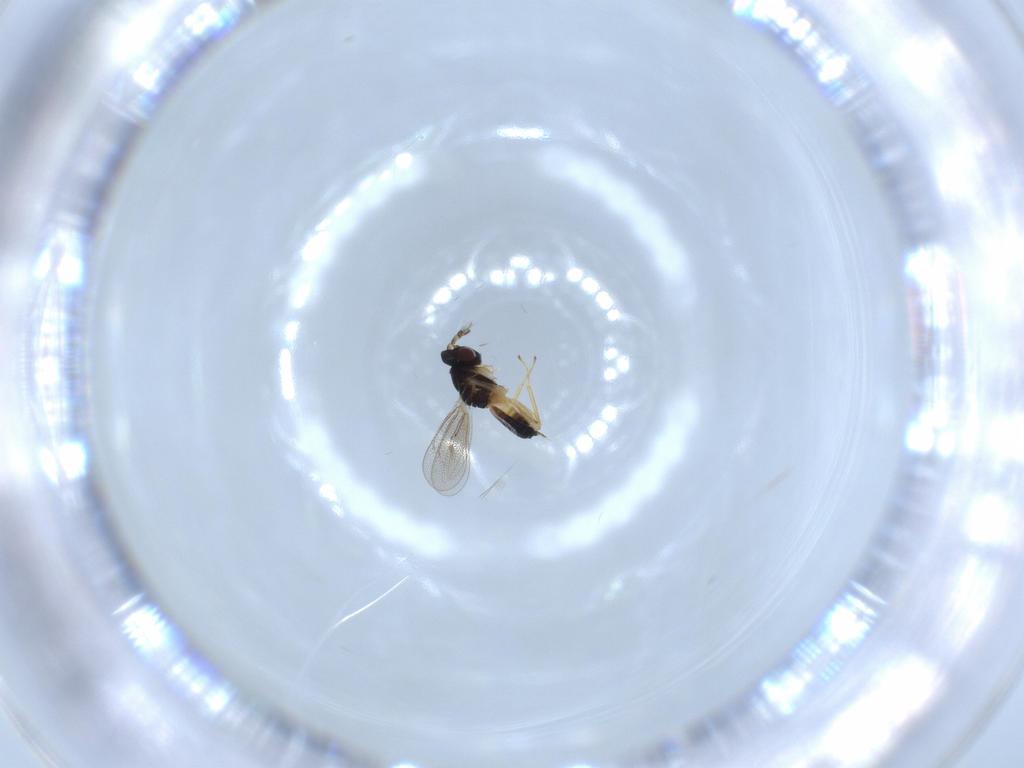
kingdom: Animalia
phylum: Arthropoda
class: Insecta
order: Hymenoptera
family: Eulophidae
